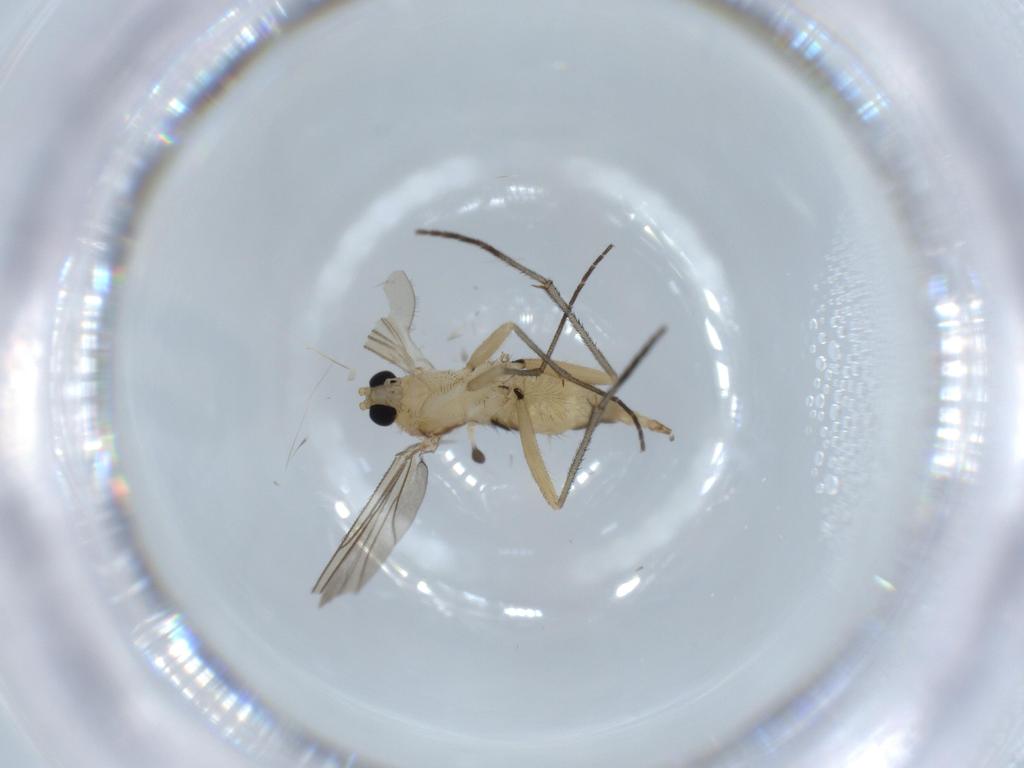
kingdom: Animalia
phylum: Arthropoda
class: Insecta
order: Diptera
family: Sciaridae
